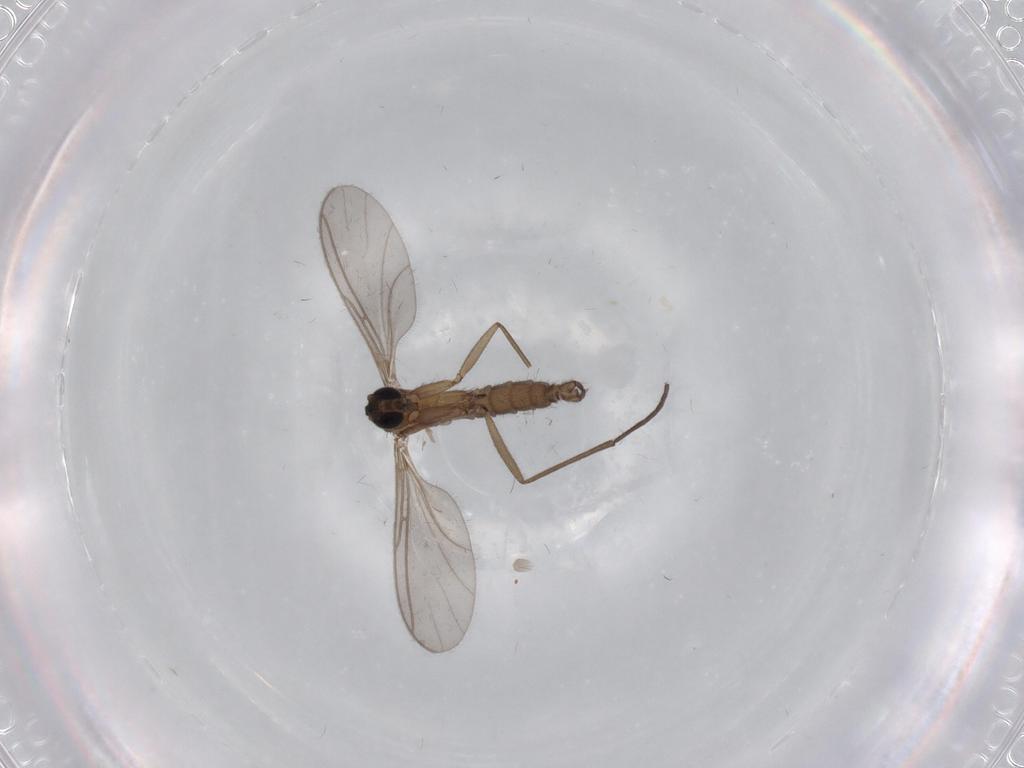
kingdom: Animalia
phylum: Arthropoda
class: Insecta
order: Diptera
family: Sciaridae
